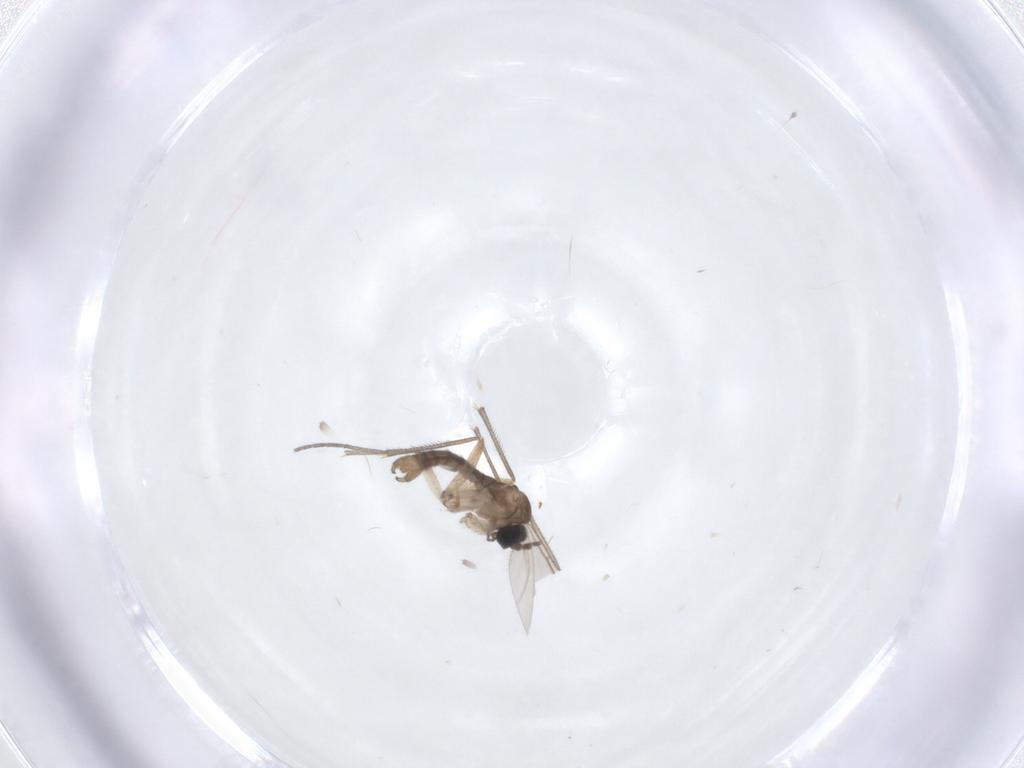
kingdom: Animalia
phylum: Arthropoda
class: Insecta
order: Diptera
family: Sciaridae
